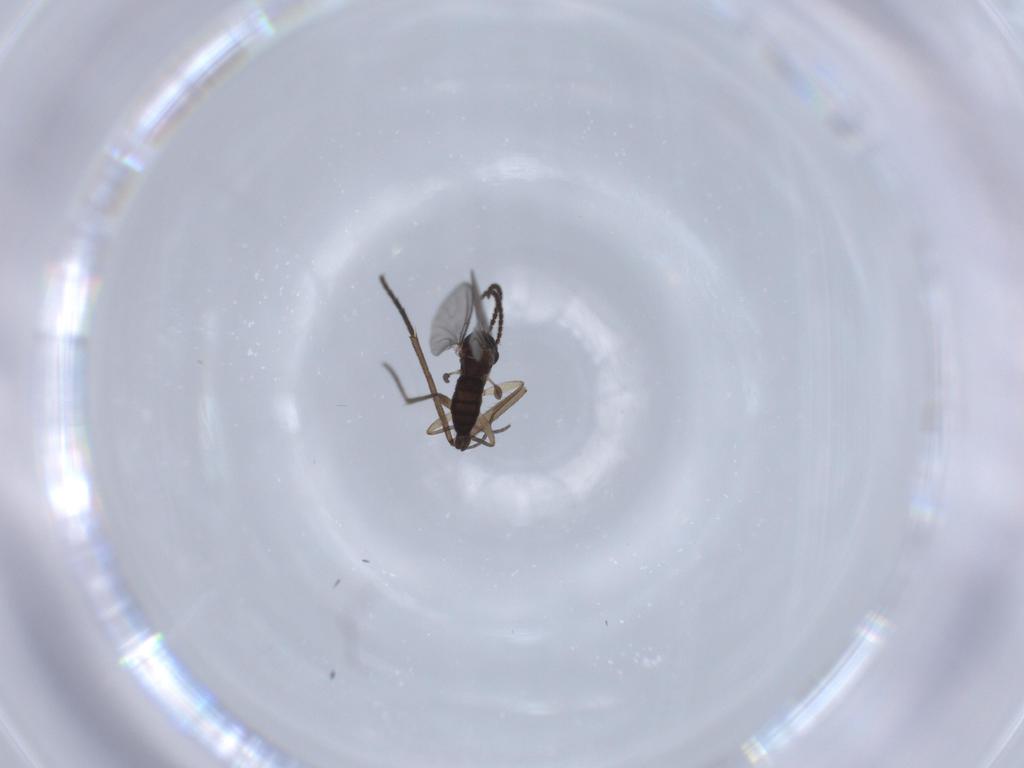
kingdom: Animalia
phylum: Arthropoda
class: Insecta
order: Diptera
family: Sciaridae
